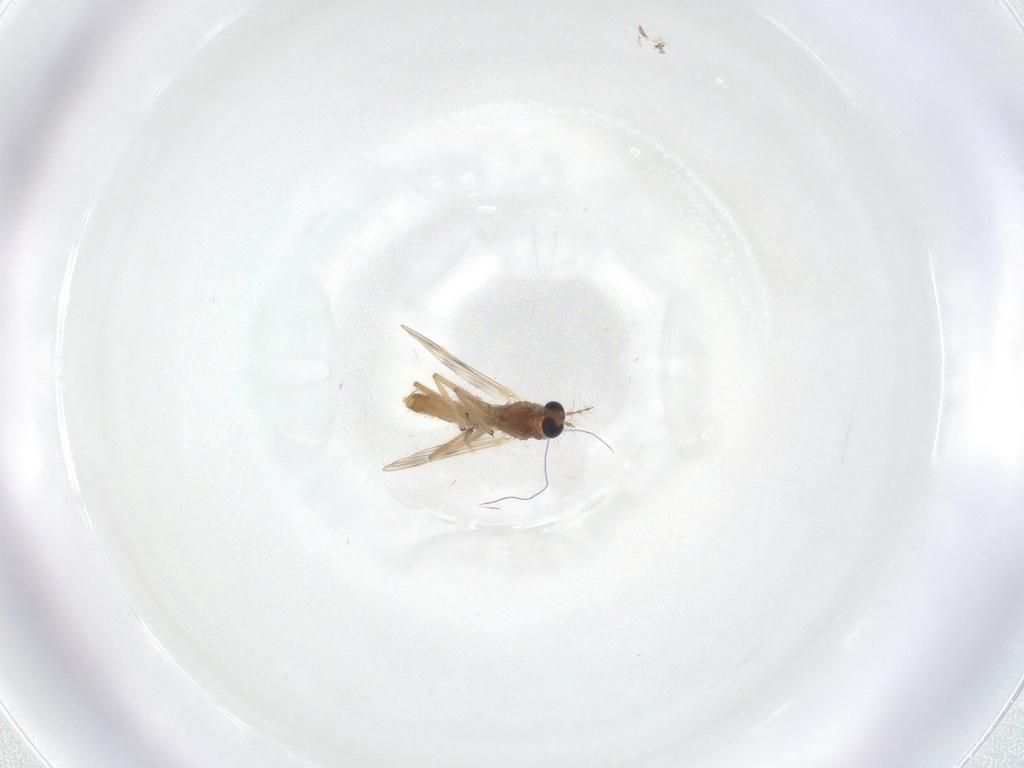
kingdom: Animalia
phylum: Arthropoda
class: Insecta
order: Diptera
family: Chironomidae
